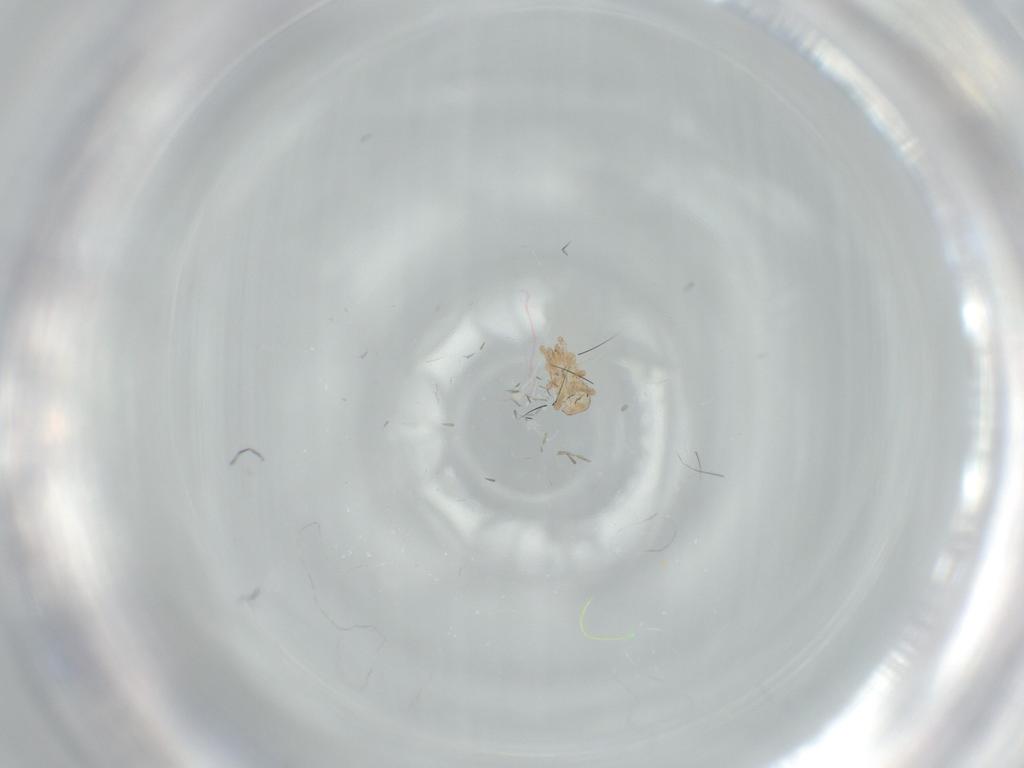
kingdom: Animalia
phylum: Arthropoda
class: Arachnida
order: Mesostigmata
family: Digamasellidae
